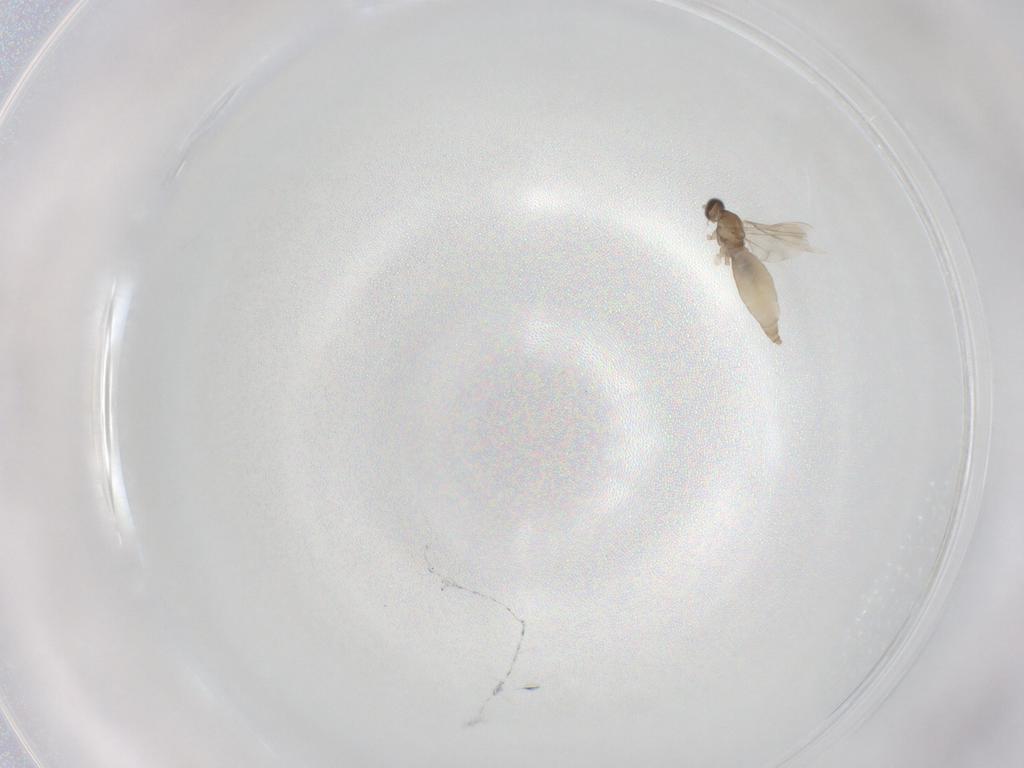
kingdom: Animalia
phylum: Arthropoda
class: Insecta
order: Diptera
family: Cecidomyiidae
